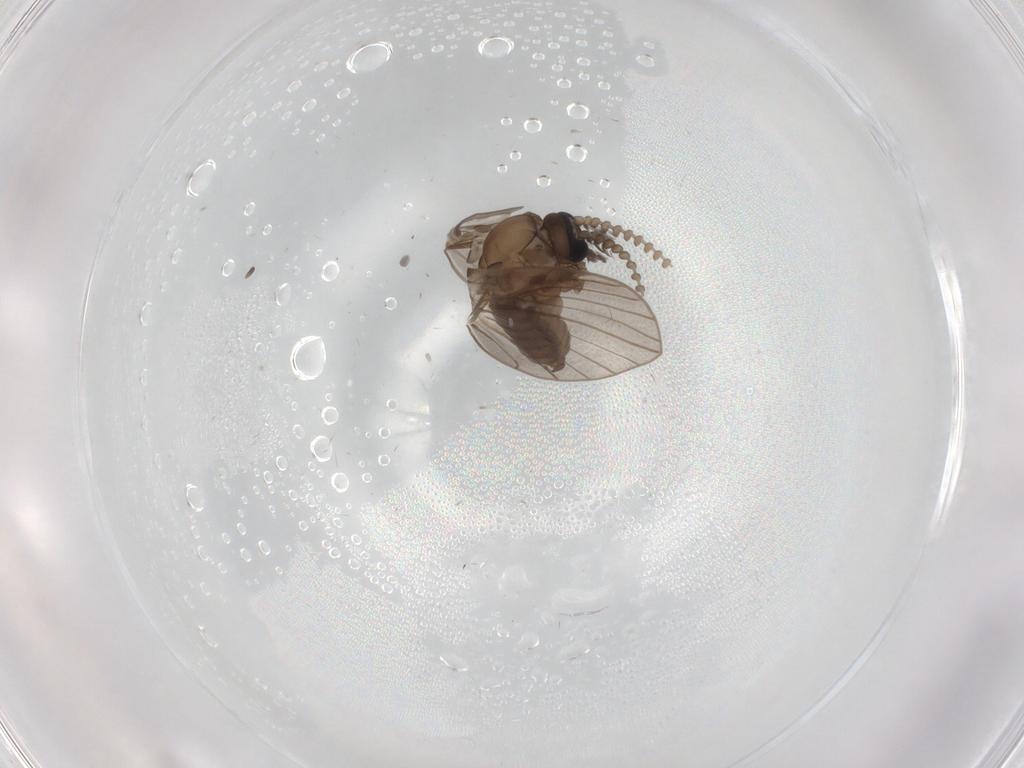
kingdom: Animalia
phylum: Arthropoda
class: Insecta
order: Diptera
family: Psychodidae
